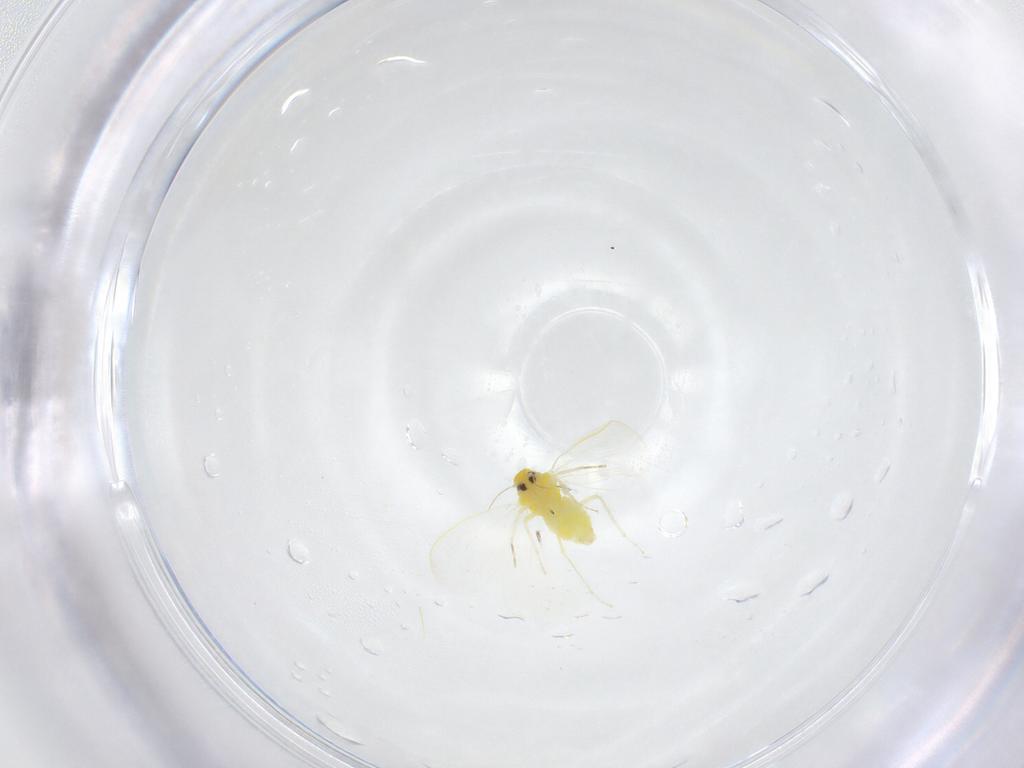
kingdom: Animalia
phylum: Arthropoda
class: Insecta
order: Hemiptera
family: Aleyrodidae
